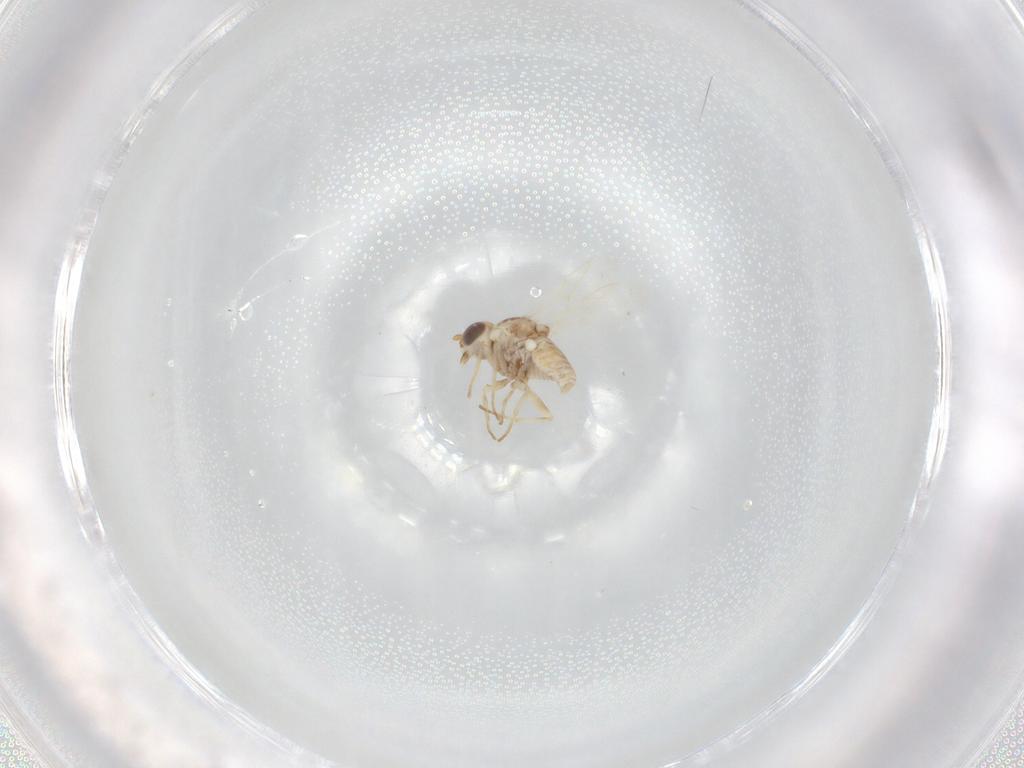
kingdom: Animalia
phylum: Arthropoda
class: Insecta
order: Diptera
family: Bombyliidae
